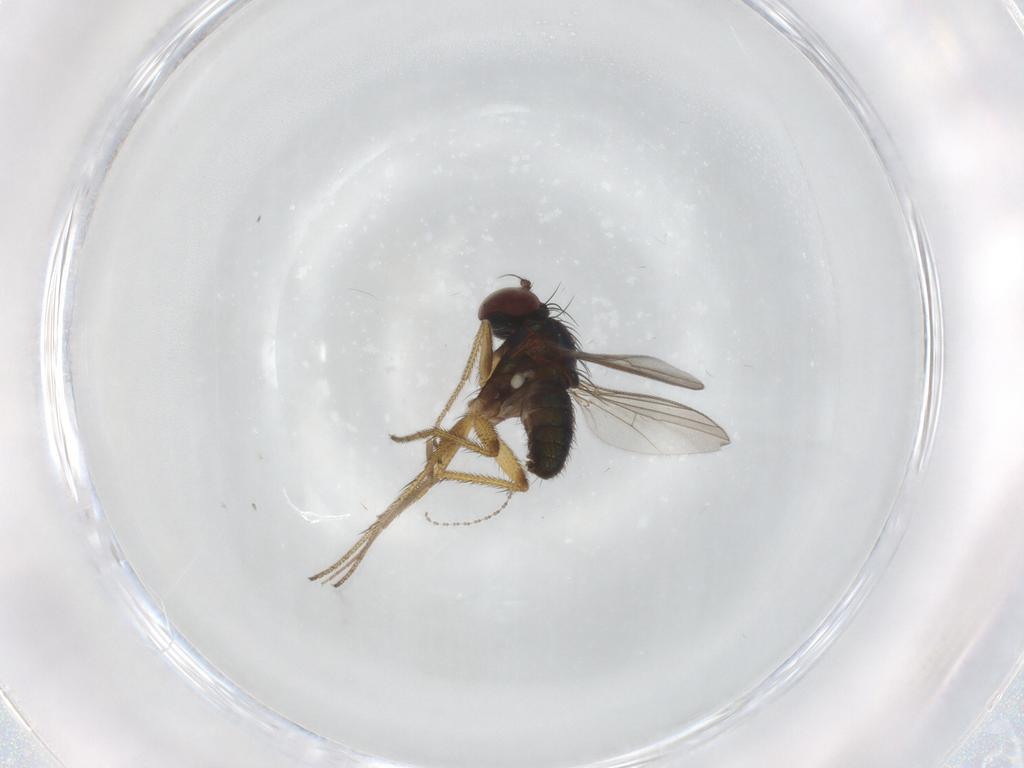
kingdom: Animalia
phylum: Arthropoda
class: Insecta
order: Diptera
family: Chironomidae
